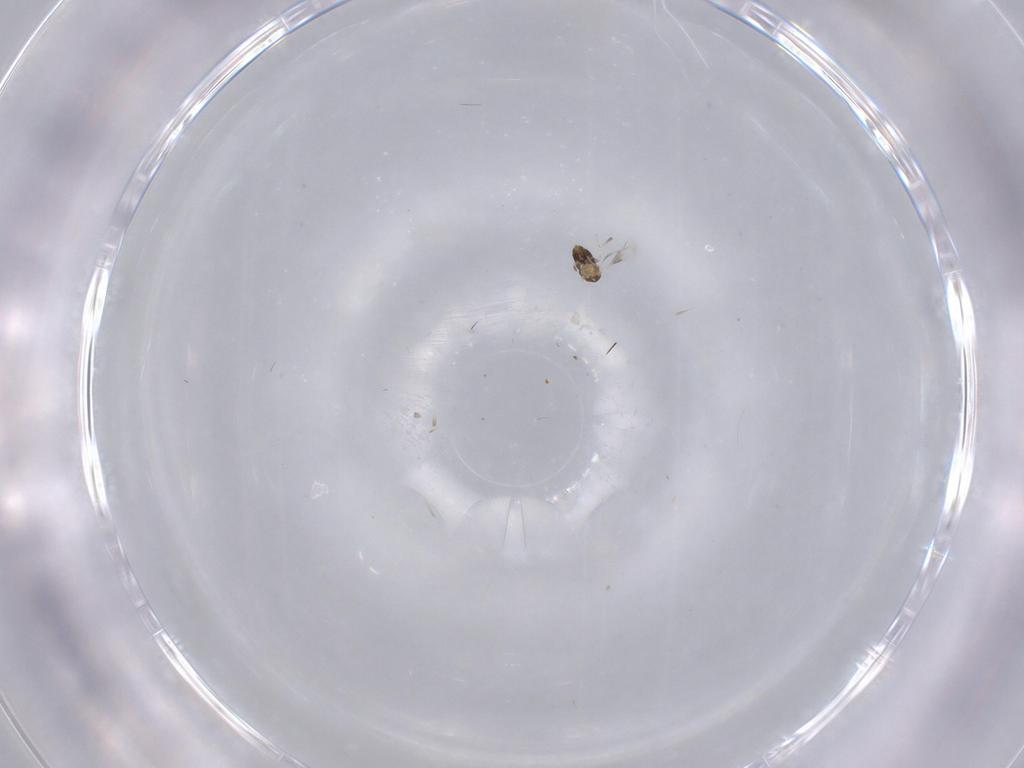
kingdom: Animalia
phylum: Arthropoda
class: Insecta
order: Hymenoptera
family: Aphelinidae
